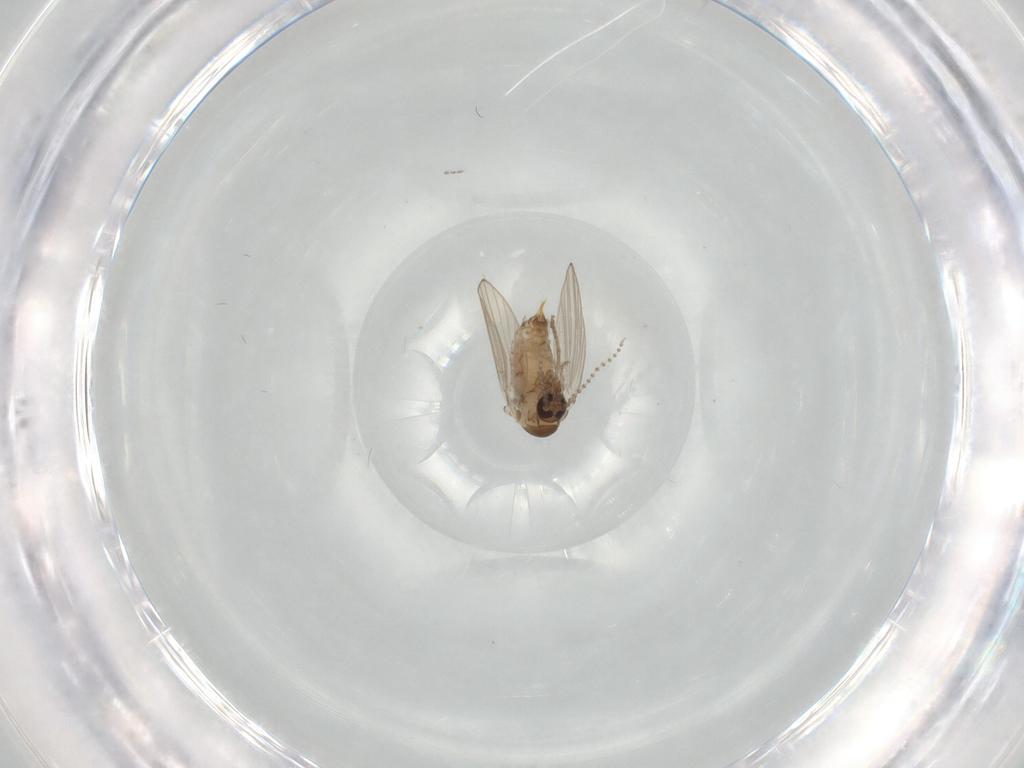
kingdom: Animalia
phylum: Arthropoda
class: Insecta
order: Diptera
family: Psychodidae
